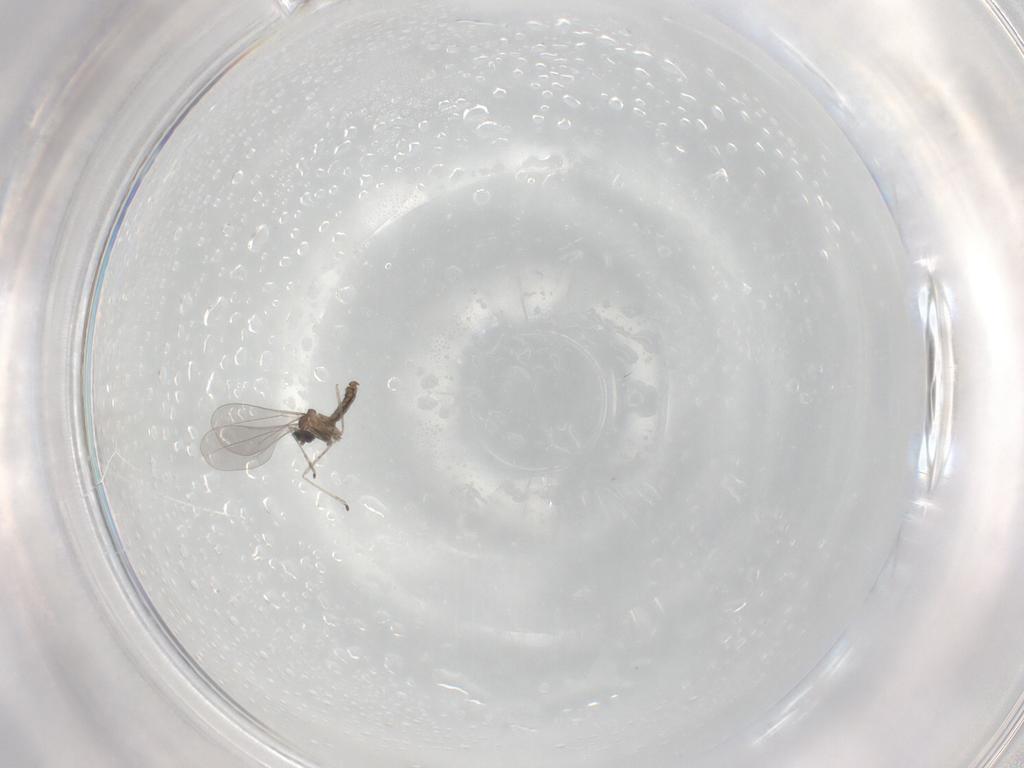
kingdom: Animalia
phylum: Arthropoda
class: Insecta
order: Diptera
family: Cecidomyiidae
